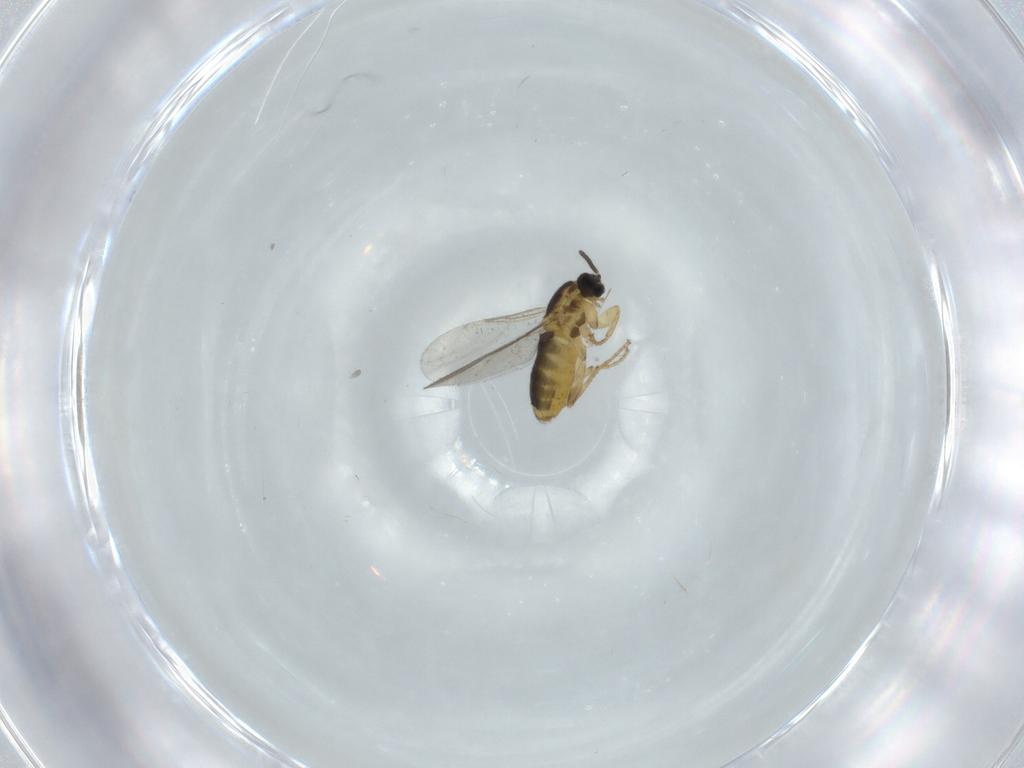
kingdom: Animalia
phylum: Arthropoda
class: Insecta
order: Diptera
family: Scatopsidae
